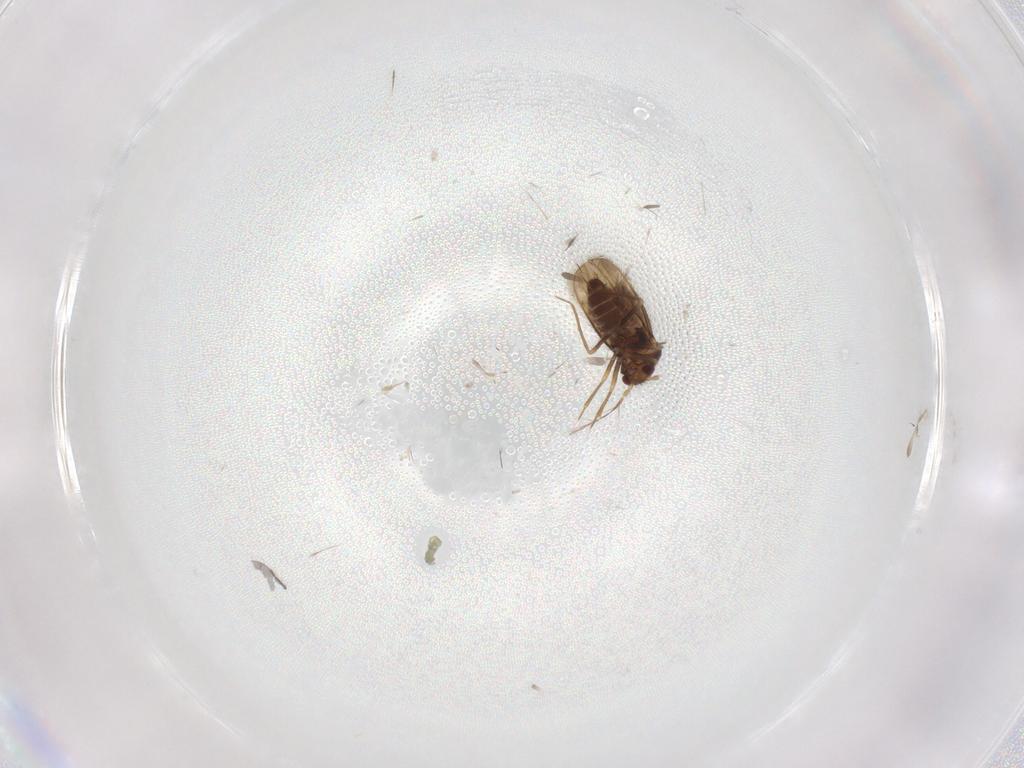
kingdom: Animalia
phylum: Arthropoda
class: Insecta
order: Hemiptera
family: Schizopteridae
